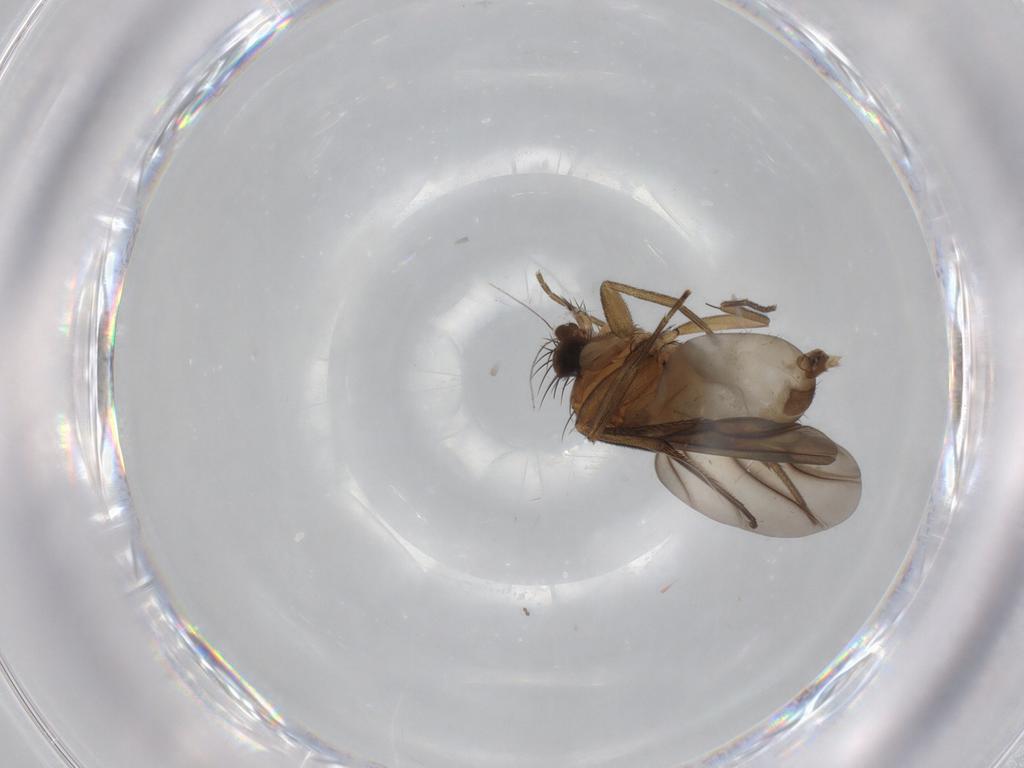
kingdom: Animalia
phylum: Arthropoda
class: Insecta
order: Diptera
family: Phoridae
